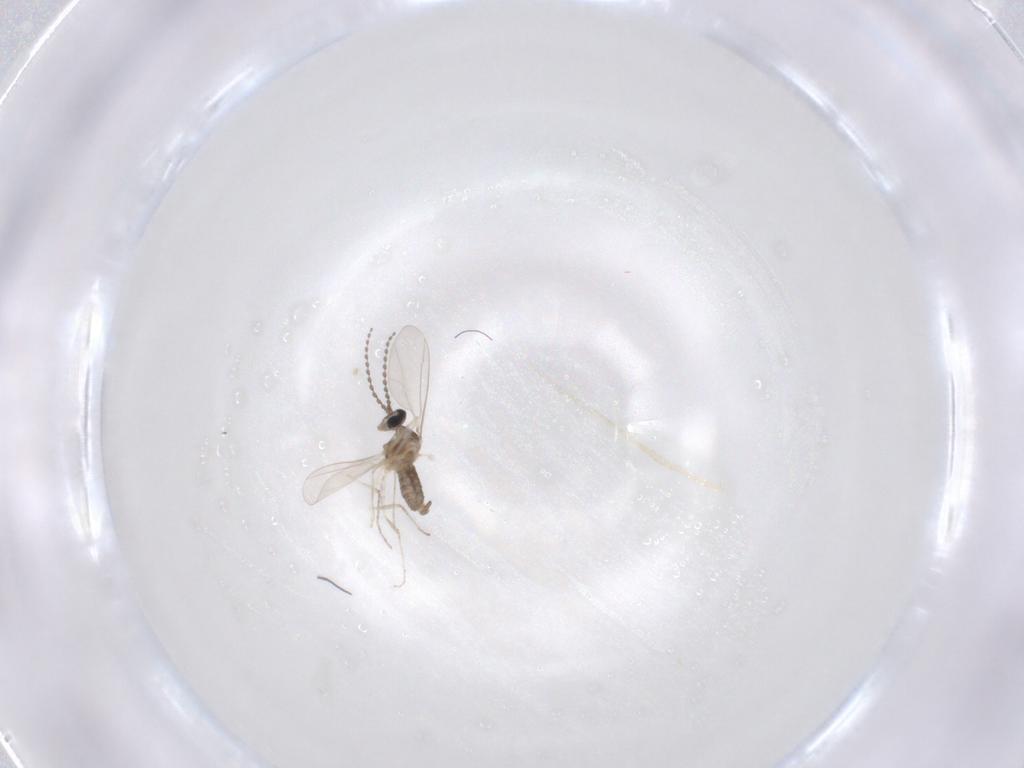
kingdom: Animalia
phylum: Arthropoda
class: Insecta
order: Diptera
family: Cecidomyiidae
